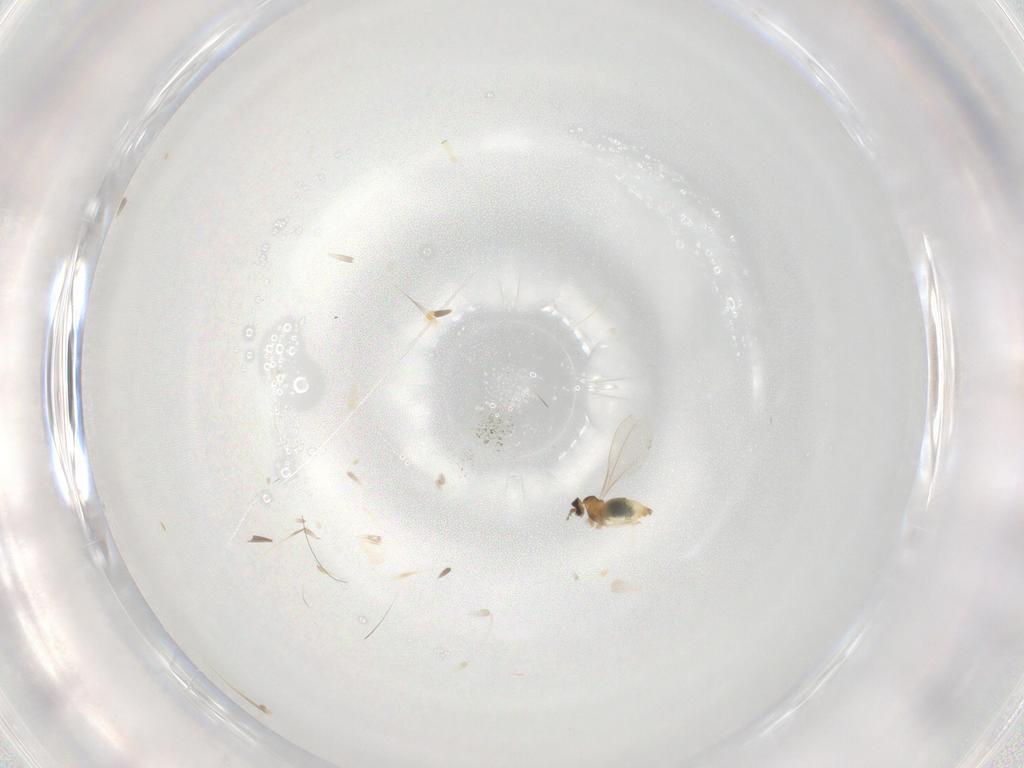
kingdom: Animalia
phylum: Arthropoda
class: Insecta
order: Diptera
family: Cecidomyiidae
